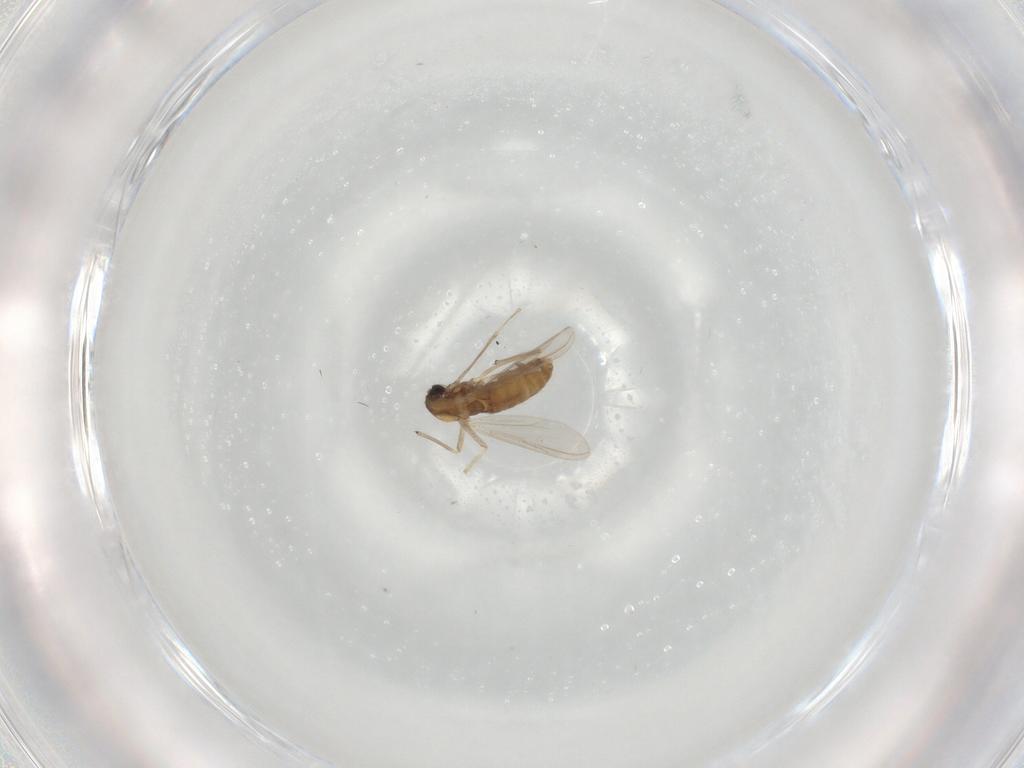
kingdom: Animalia
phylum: Arthropoda
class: Insecta
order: Diptera
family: Chironomidae
